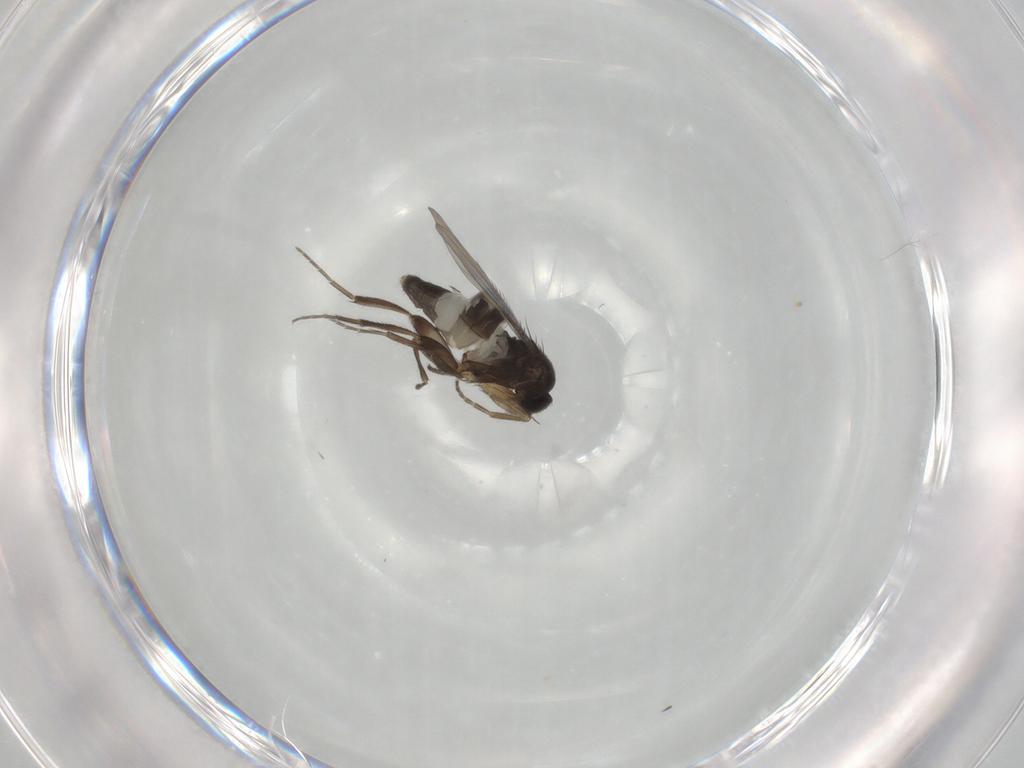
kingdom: Animalia
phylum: Arthropoda
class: Insecta
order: Diptera
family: Phoridae
